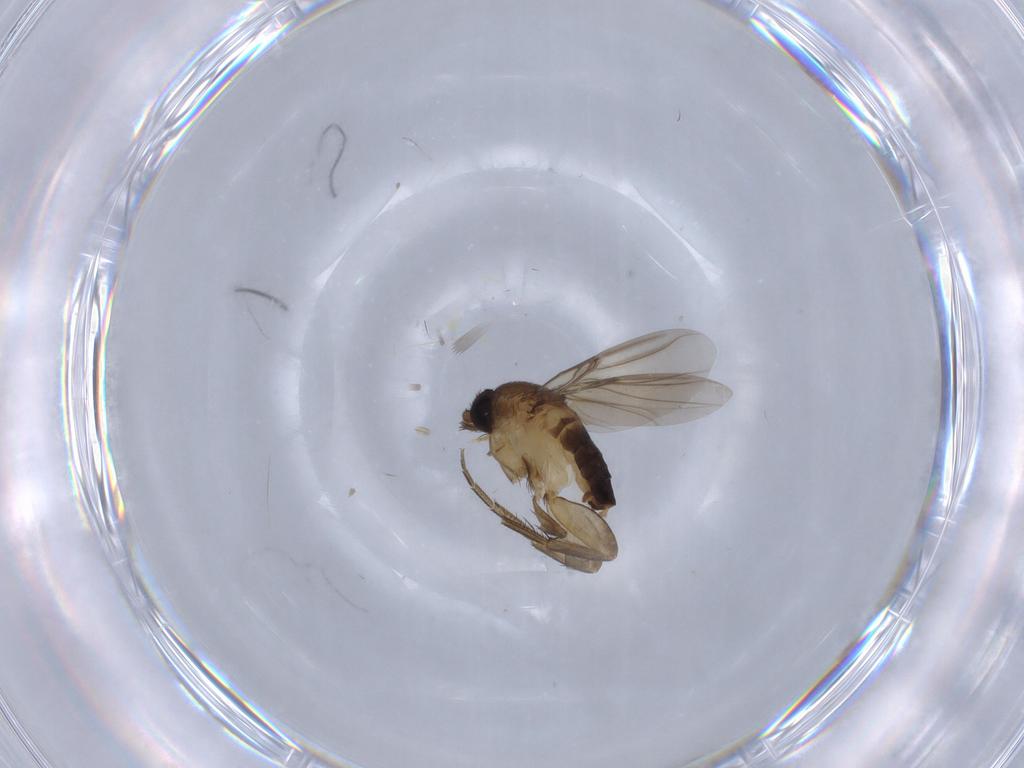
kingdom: Animalia
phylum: Arthropoda
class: Insecta
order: Diptera
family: Phoridae
